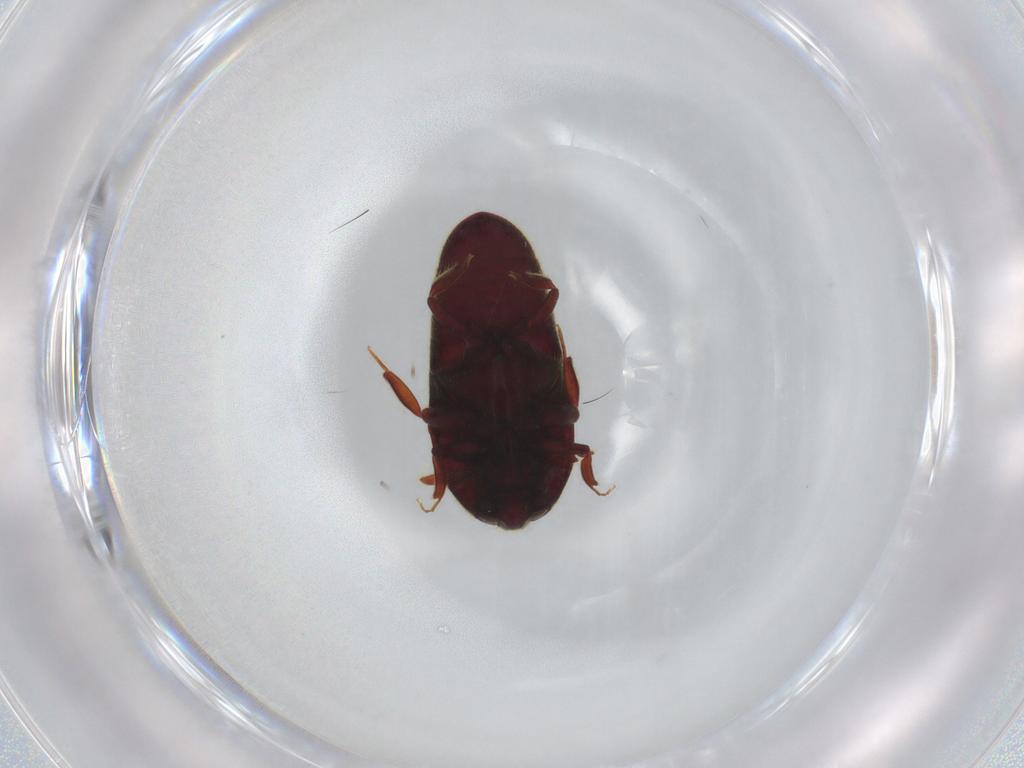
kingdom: Animalia
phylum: Arthropoda
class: Insecta
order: Coleoptera
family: Throscidae
